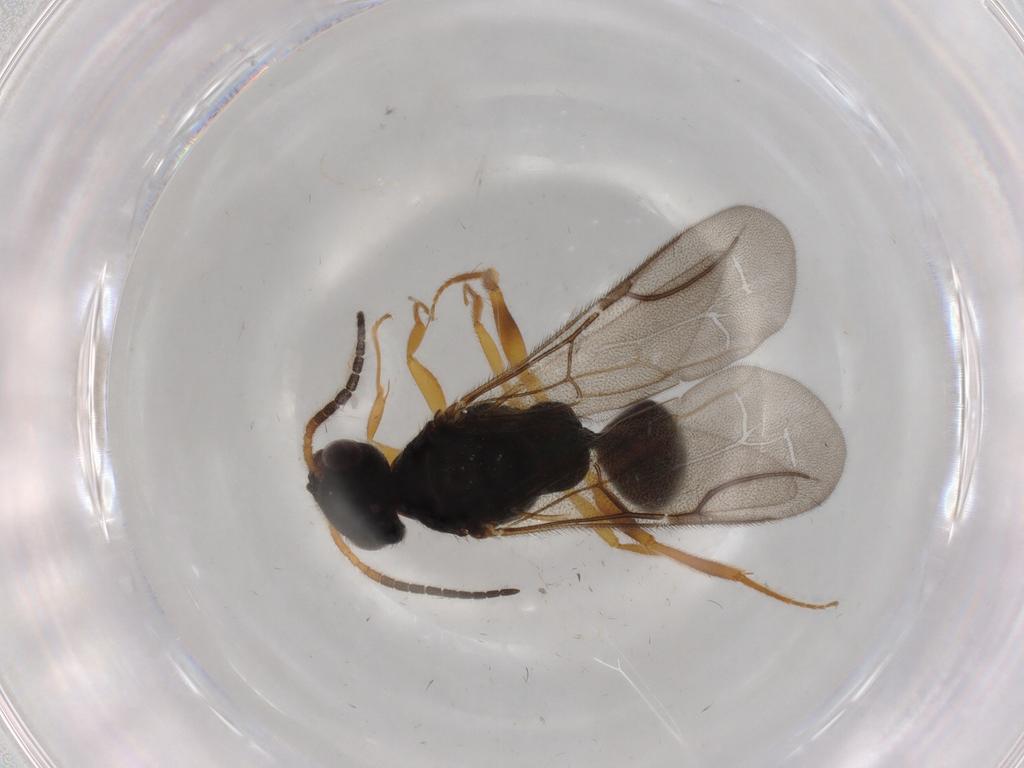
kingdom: Animalia
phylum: Arthropoda
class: Insecta
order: Hymenoptera
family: Bethylidae
